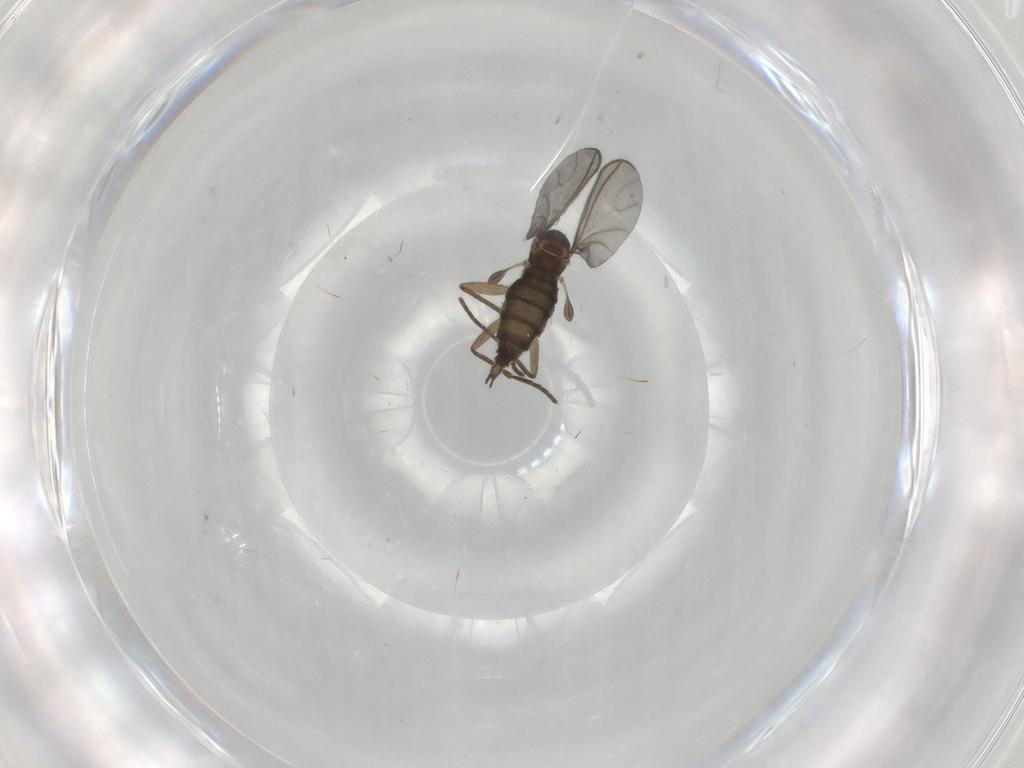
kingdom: Animalia
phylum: Arthropoda
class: Insecta
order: Diptera
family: Sciaridae
